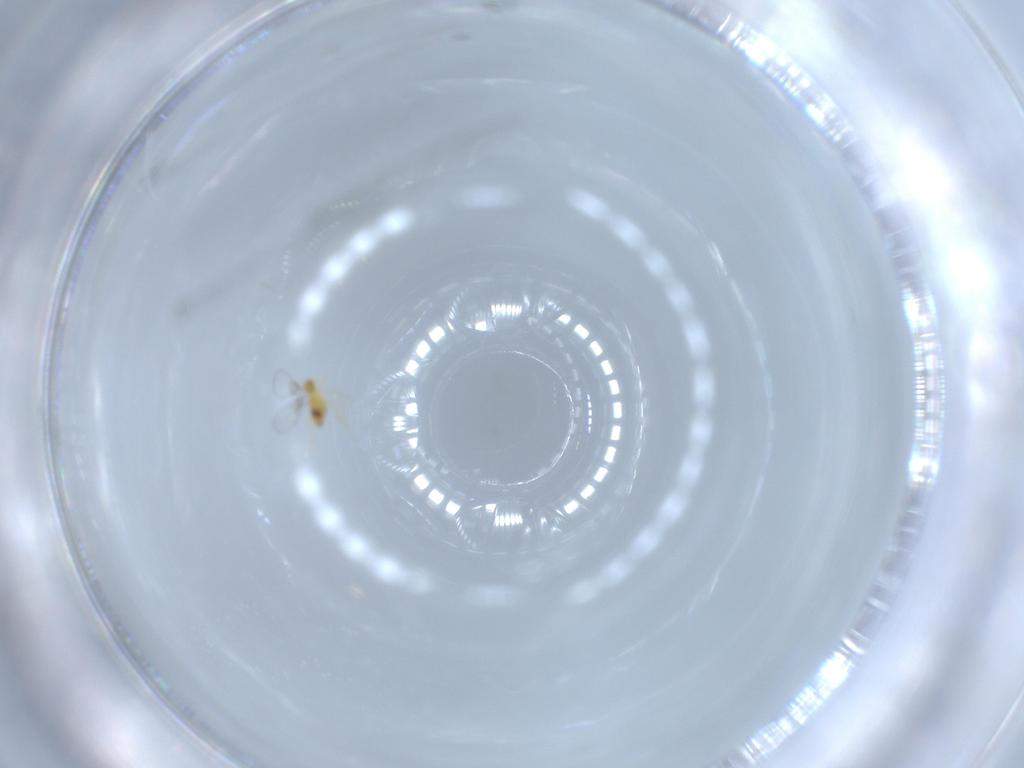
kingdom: Animalia
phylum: Arthropoda
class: Insecta
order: Hymenoptera
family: Trichogrammatidae
